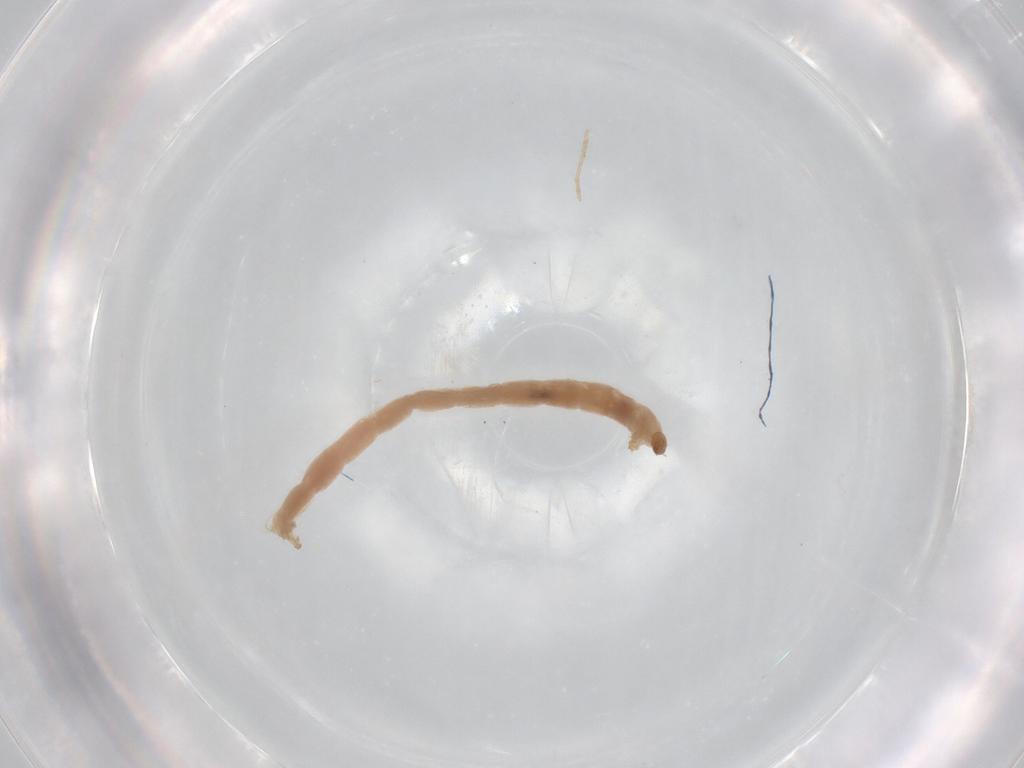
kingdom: Animalia
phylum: Arthropoda
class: Insecta
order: Diptera
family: Chironomidae
